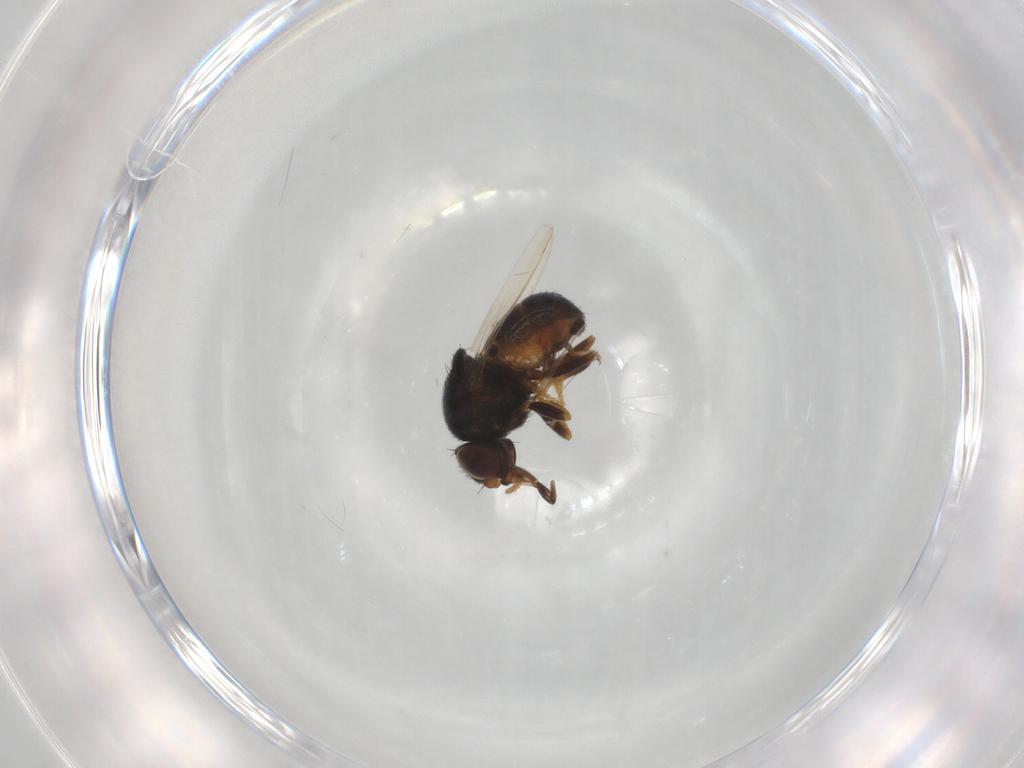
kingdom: Animalia
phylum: Arthropoda
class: Insecta
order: Diptera
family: Chloropidae
